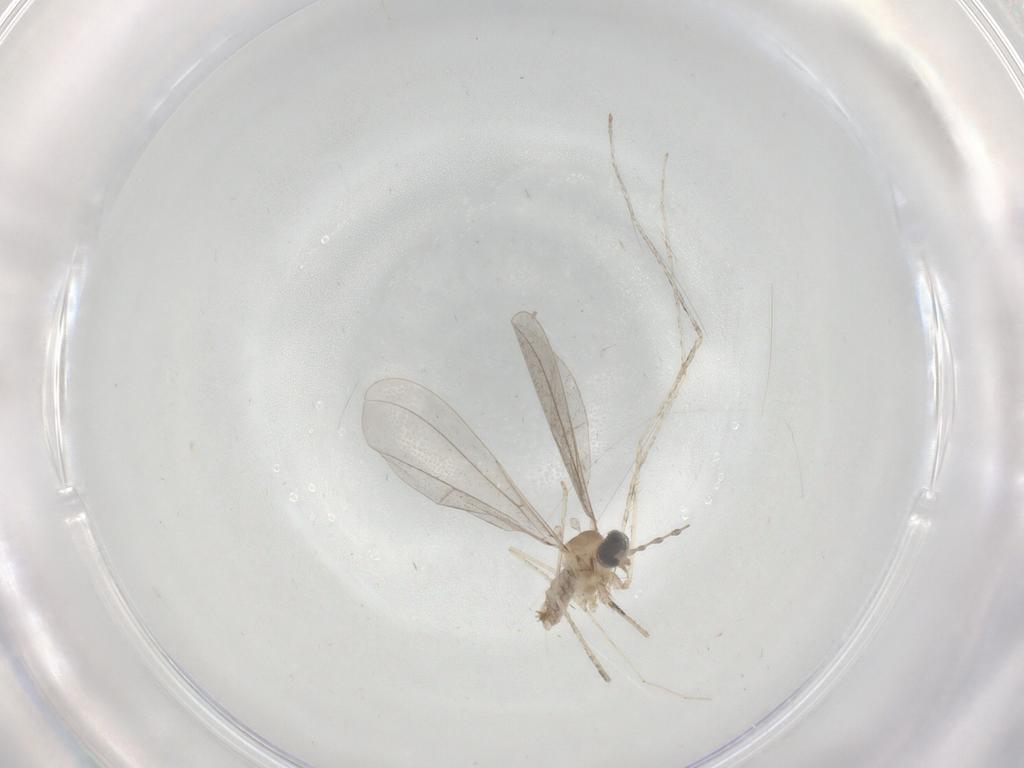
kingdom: Animalia
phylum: Arthropoda
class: Insecta
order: Diptera
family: Cecidomyiidae
